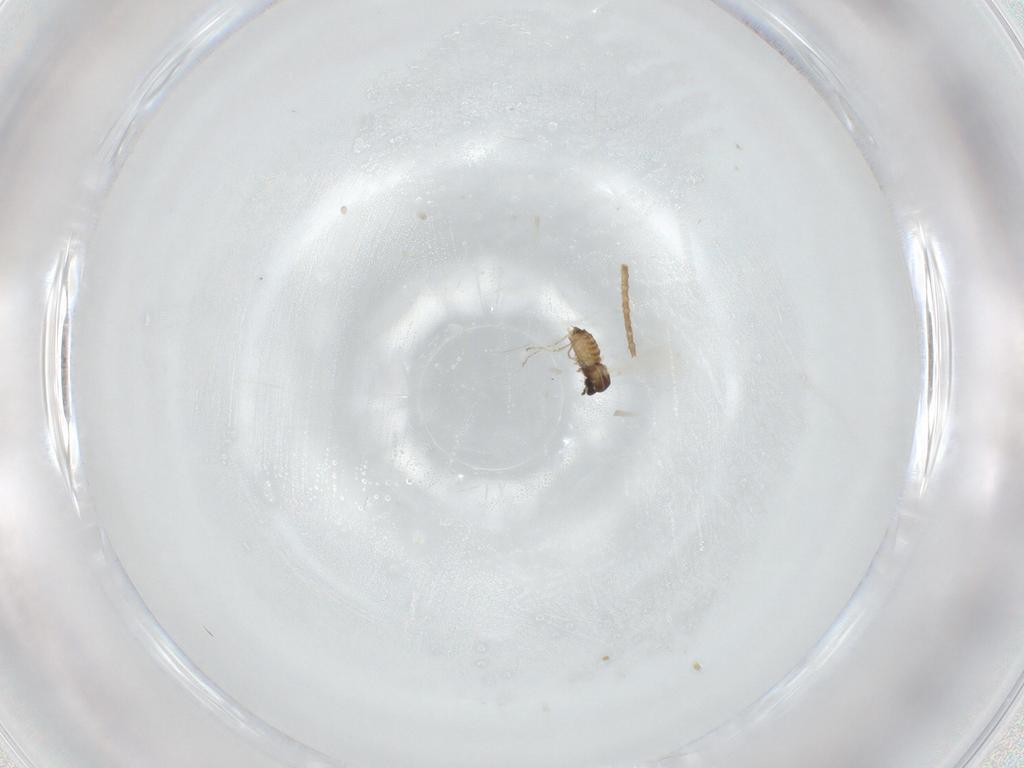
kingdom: Animalia
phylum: Arthropoda
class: Insecta
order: Diptera
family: Cecidomyiidae
